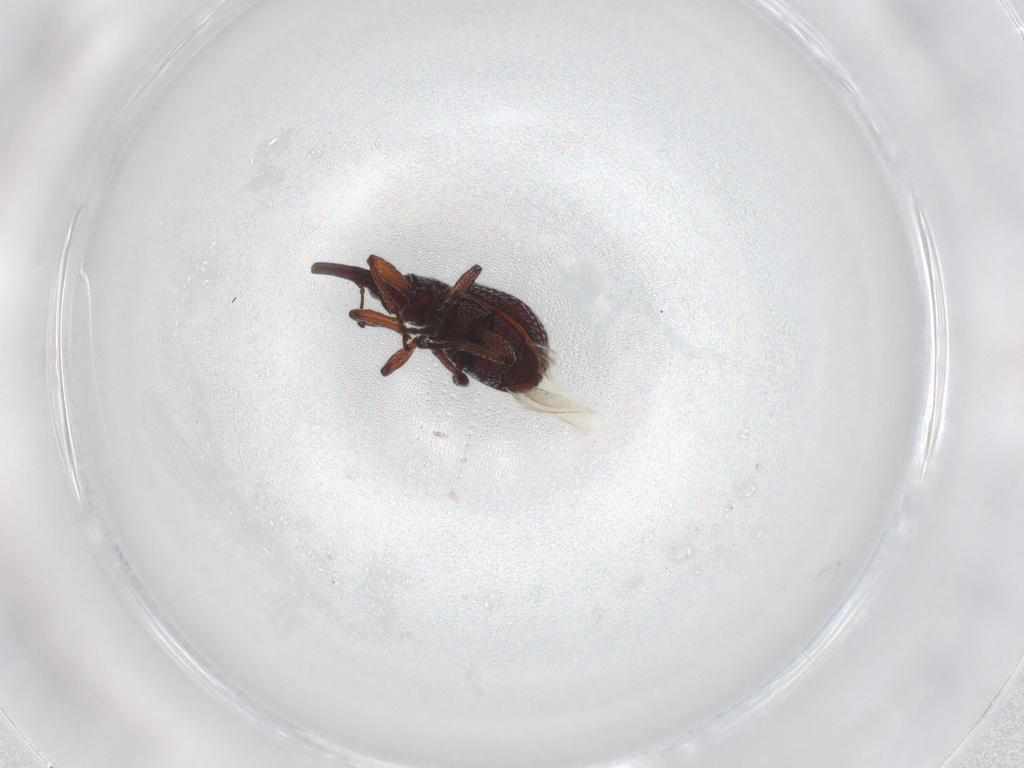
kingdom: Animalia
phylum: Arthropoda
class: Insecta
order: Coleoptera
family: Brentidae
